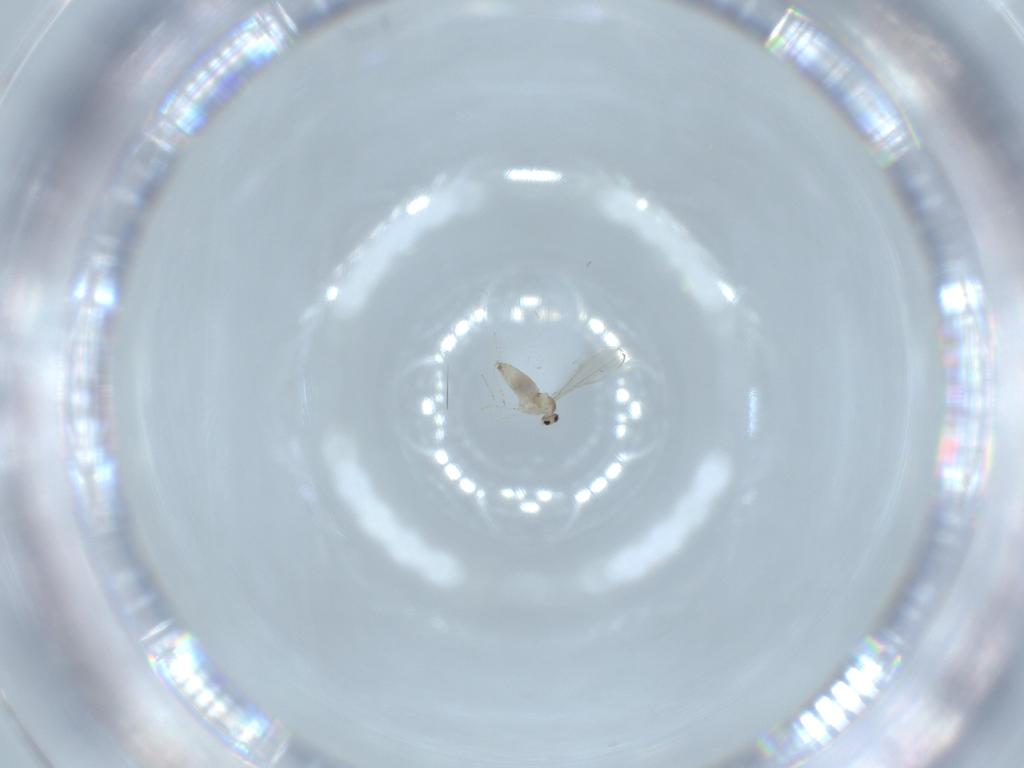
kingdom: Animalia
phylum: Arthropoda
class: Insecta
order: Diptera
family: Cecidomyiidae
